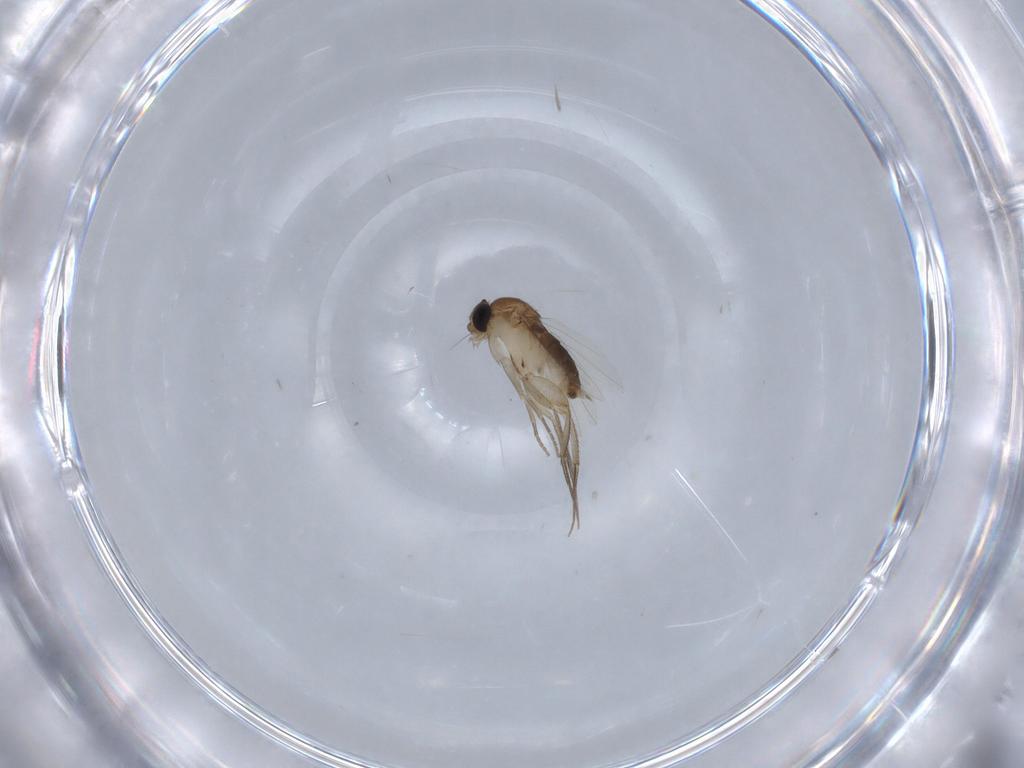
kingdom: Animalia
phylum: Arthropoda
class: Insecta
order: Diptera
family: Phoridae
